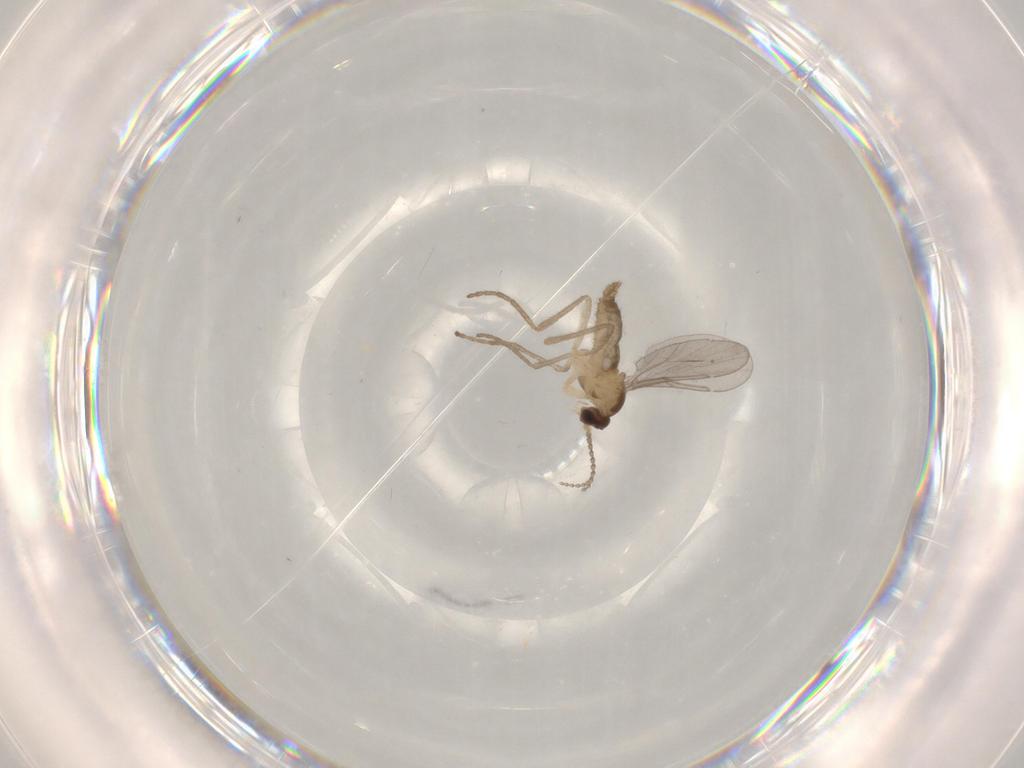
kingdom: Animalia
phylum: Arthropoda
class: Insecta
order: Diptera
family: Cecidomyiidae
